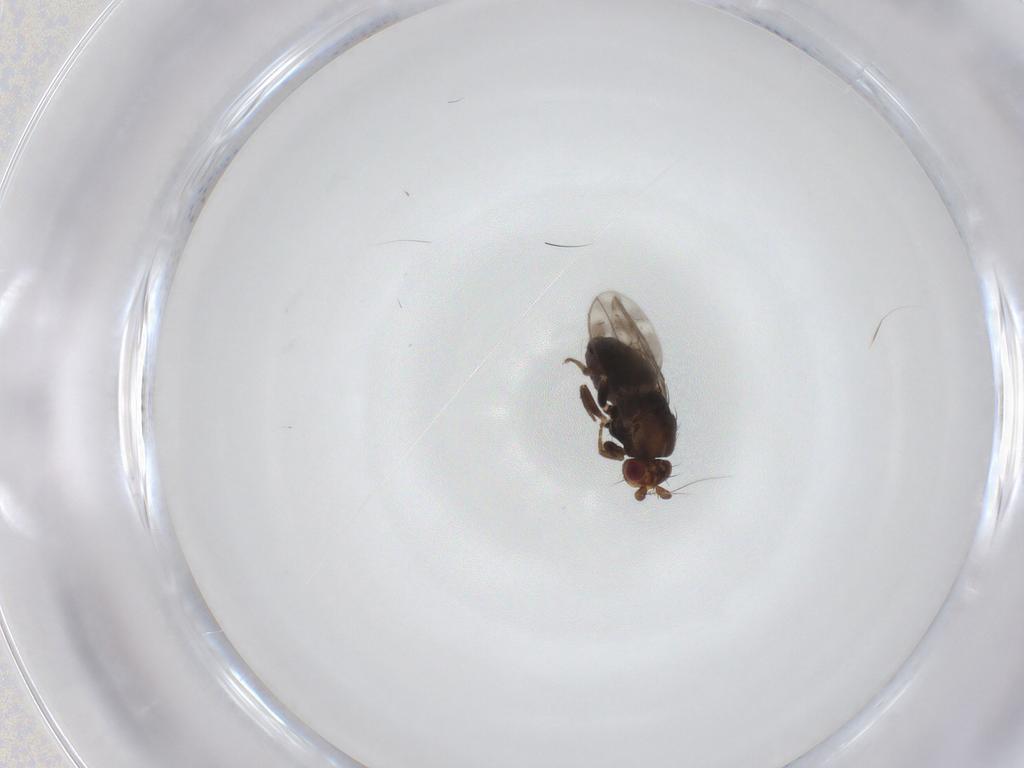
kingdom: Animalia
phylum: Arthropoda
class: Insecta
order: Diptera
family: Sphaeroceridae
